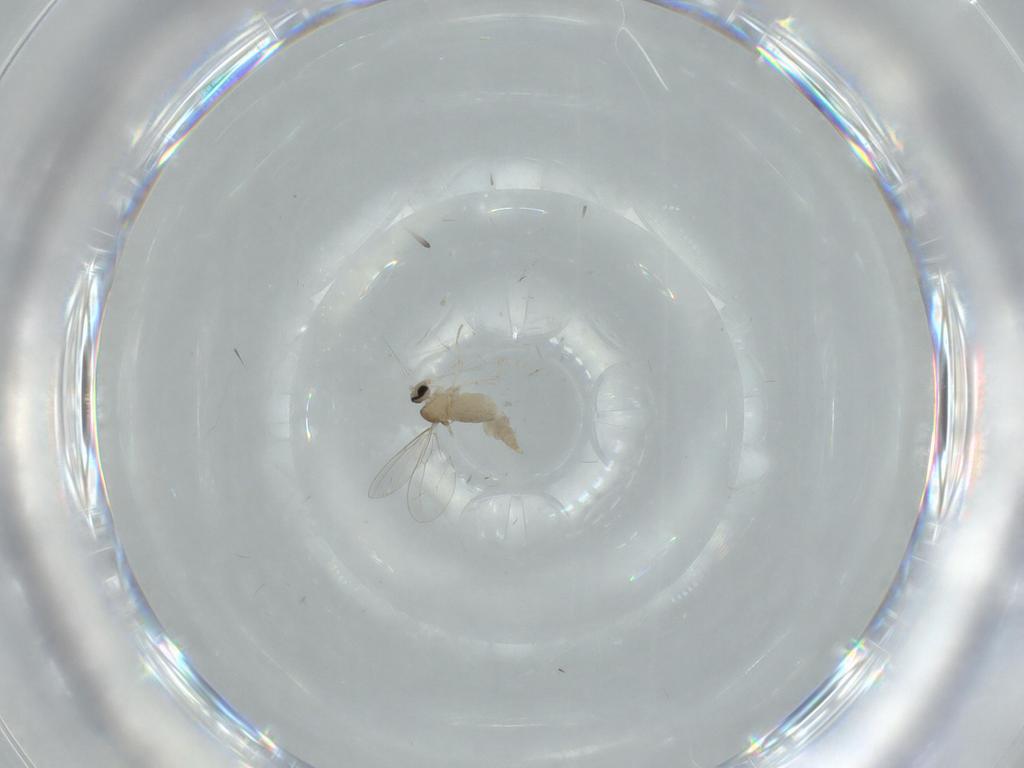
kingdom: Animalia
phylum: Arthropoda
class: Insecta
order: Diptera
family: Cecidomyiidae
